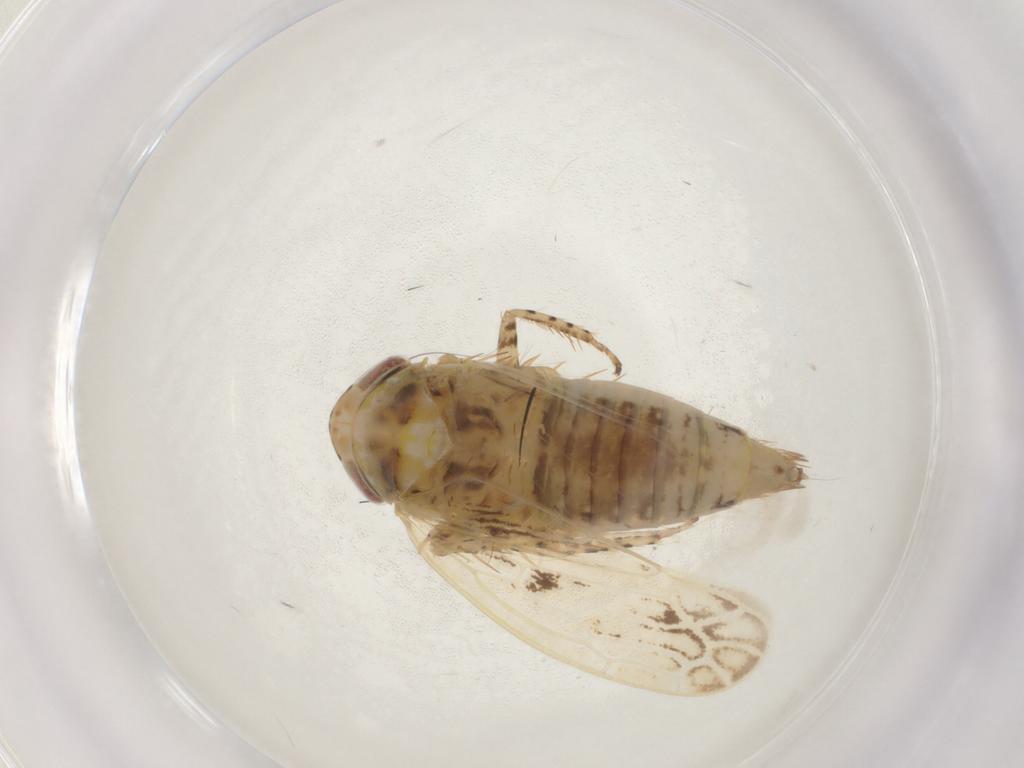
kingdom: Animalia
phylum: Arthropoda
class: Insecta
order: Hemiptera
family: Cicadellidae
